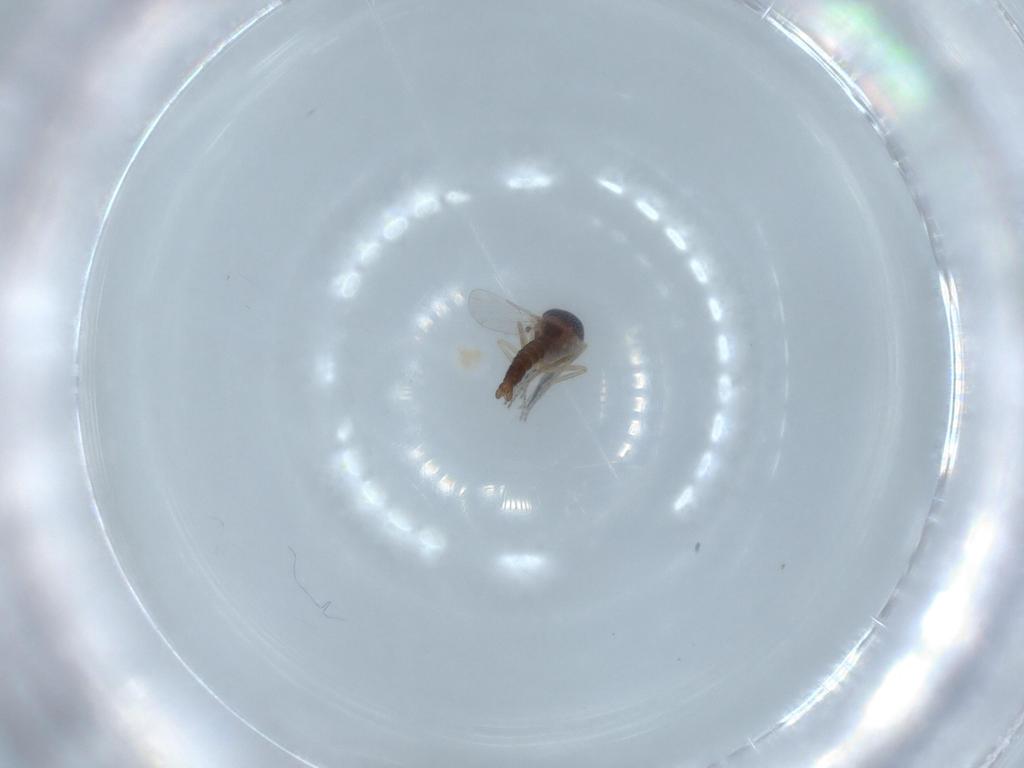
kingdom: Animalia
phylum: Arthropoda
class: Insecta
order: Diptera
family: Ceratopogonidae
